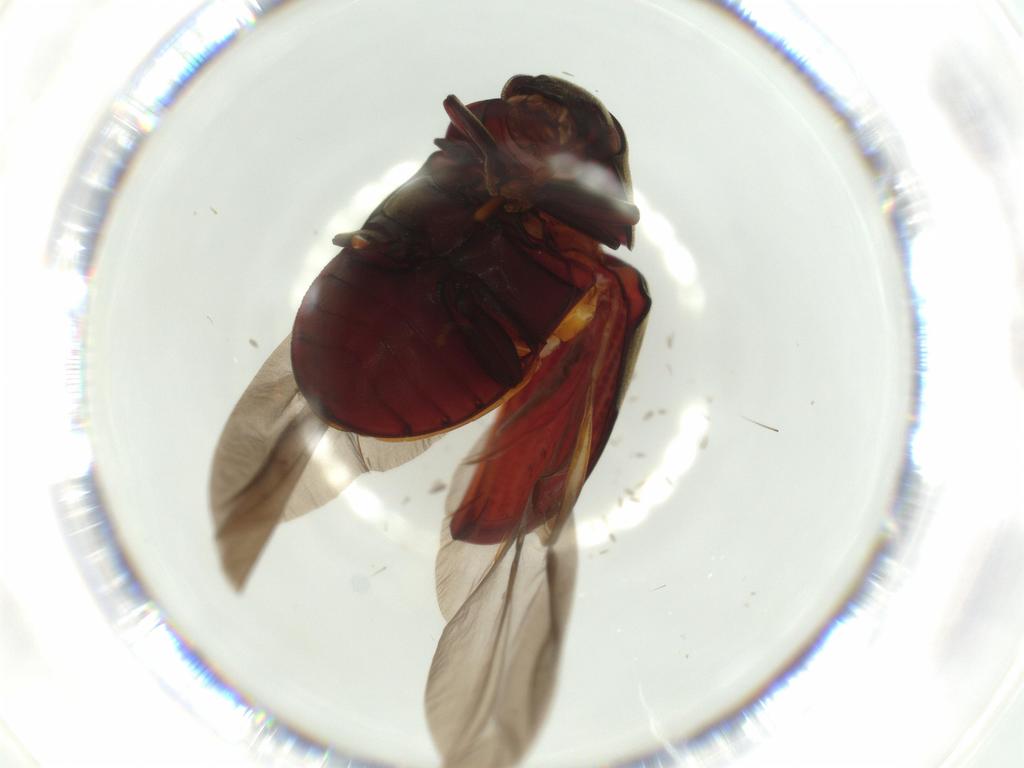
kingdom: Animalia
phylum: Arthropoda
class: Insecta
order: Coleoptera
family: Ptinidae
